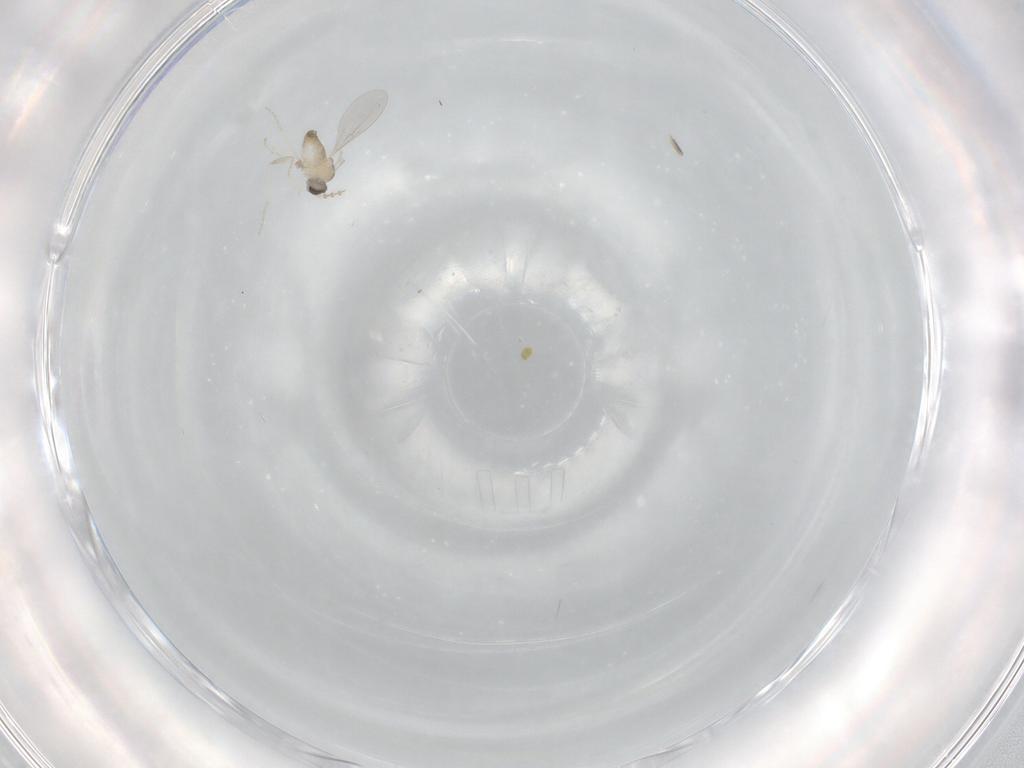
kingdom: Animalia
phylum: Arthropoda
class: Insecta
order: Diptera
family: Cecidomyiidae
